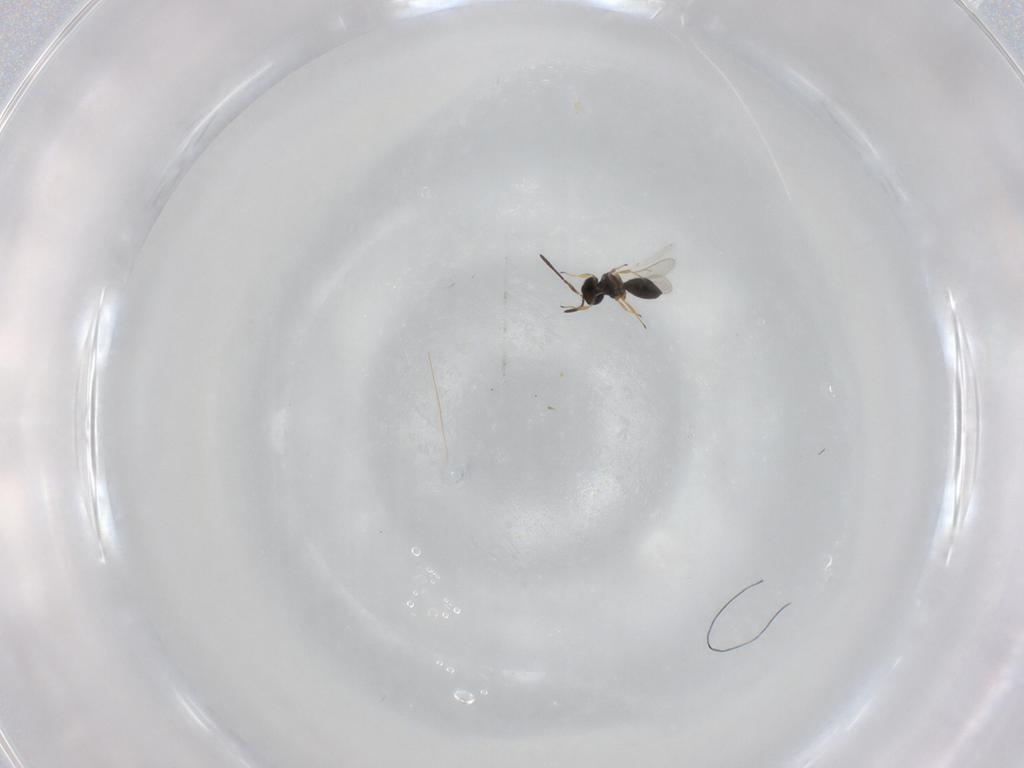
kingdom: Animalia
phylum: Arthropoda
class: Insecta
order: Hymenoptera
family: Scelionidae
